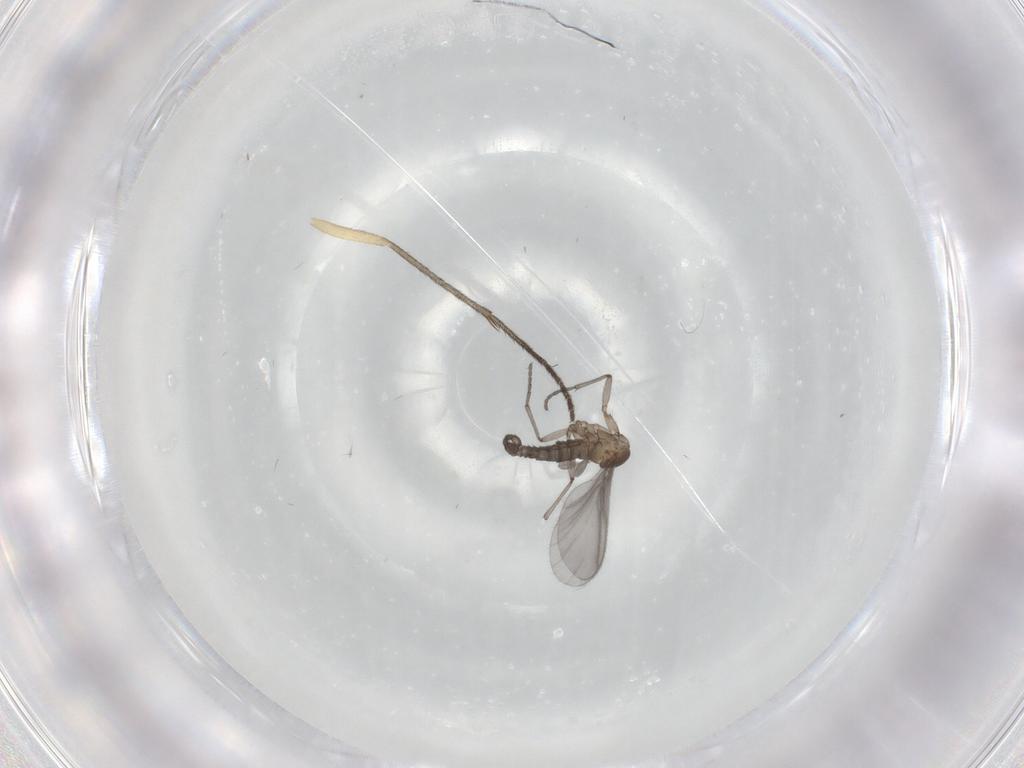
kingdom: Animalia
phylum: Arthropoda
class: Insecta
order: Diptera
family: Sciaridae
